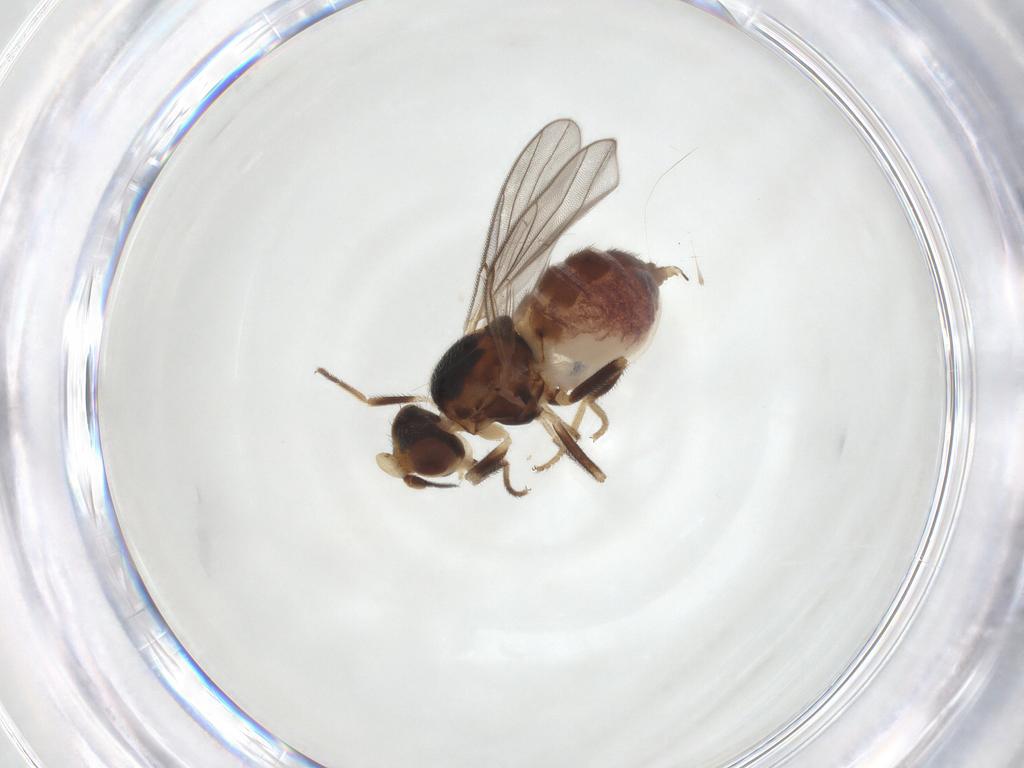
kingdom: Animalia
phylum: Arthropoda
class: Insecta
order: Diptera
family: Chloropidae
